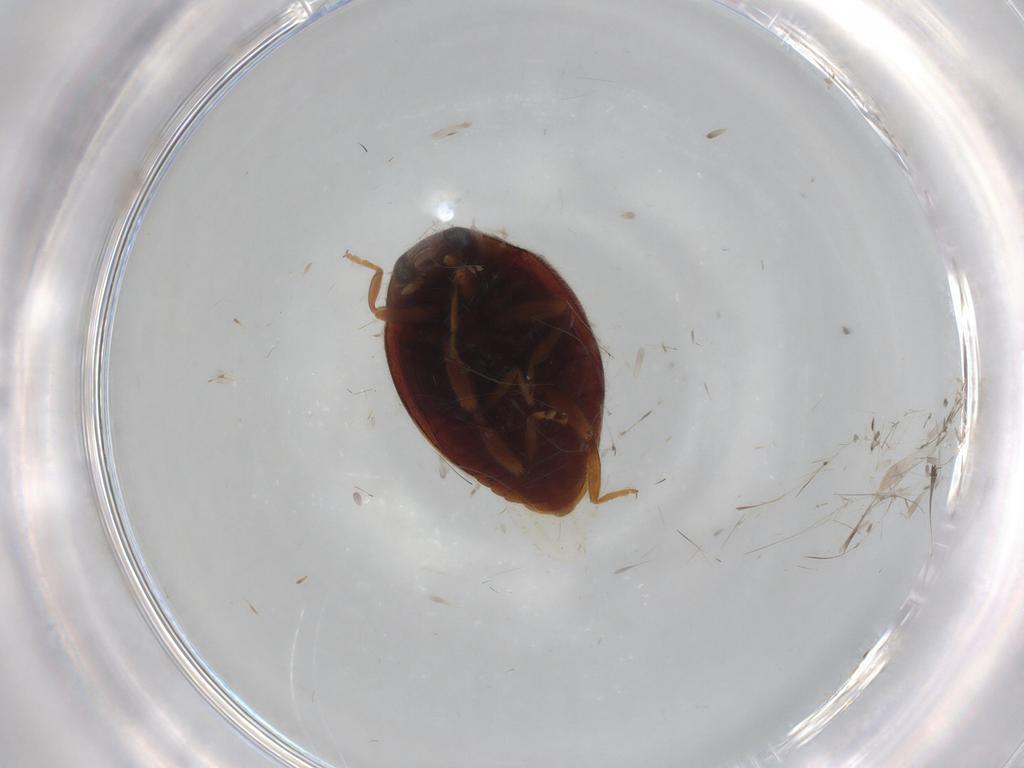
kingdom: Animalia
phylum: Arthropoda
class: Insecta
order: Coleoptera
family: Coccinellidae
